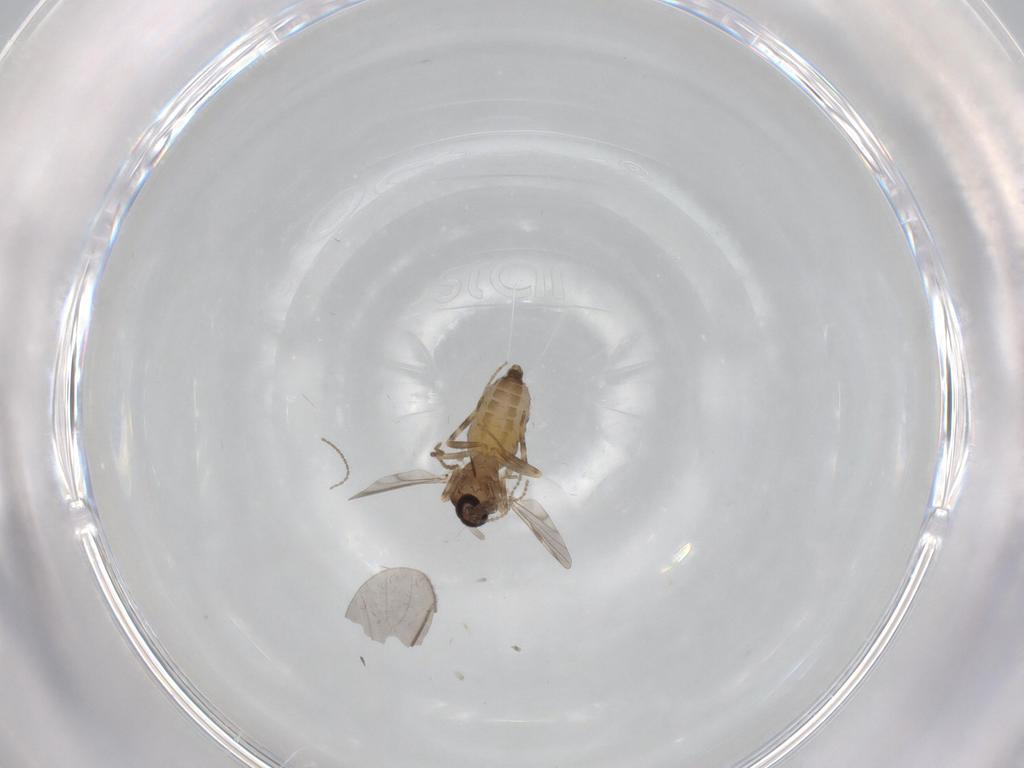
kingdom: Animalia
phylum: Arthropoda
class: Insecta
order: Diptera
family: Ceratopogonidae
